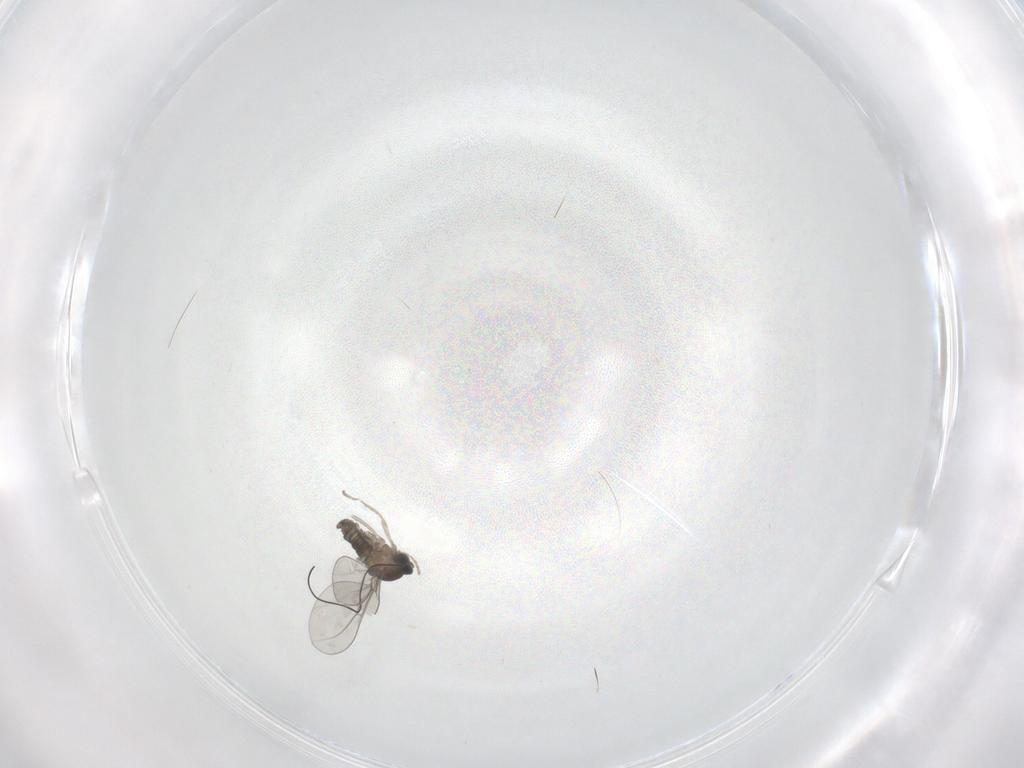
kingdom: Animalia
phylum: Arthropoda
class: Insecta
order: Diptera
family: Cecidomyiidae
